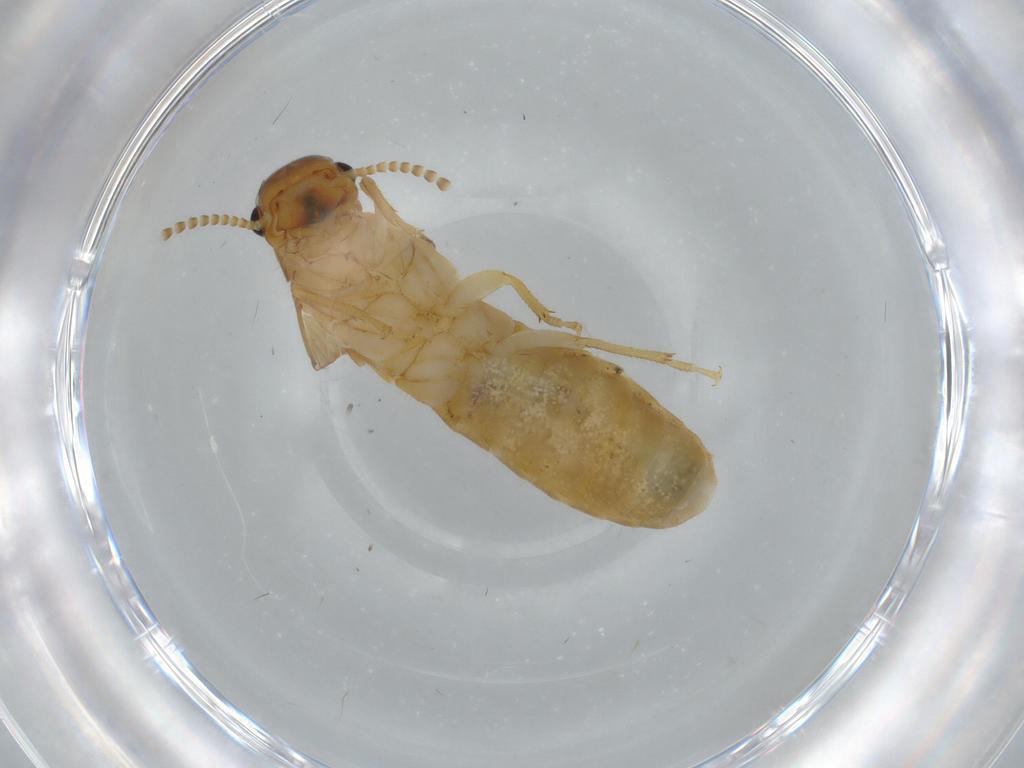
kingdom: Animalia
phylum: Arthropoda
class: Insecta
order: Blattodea
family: Kalotermitidae
